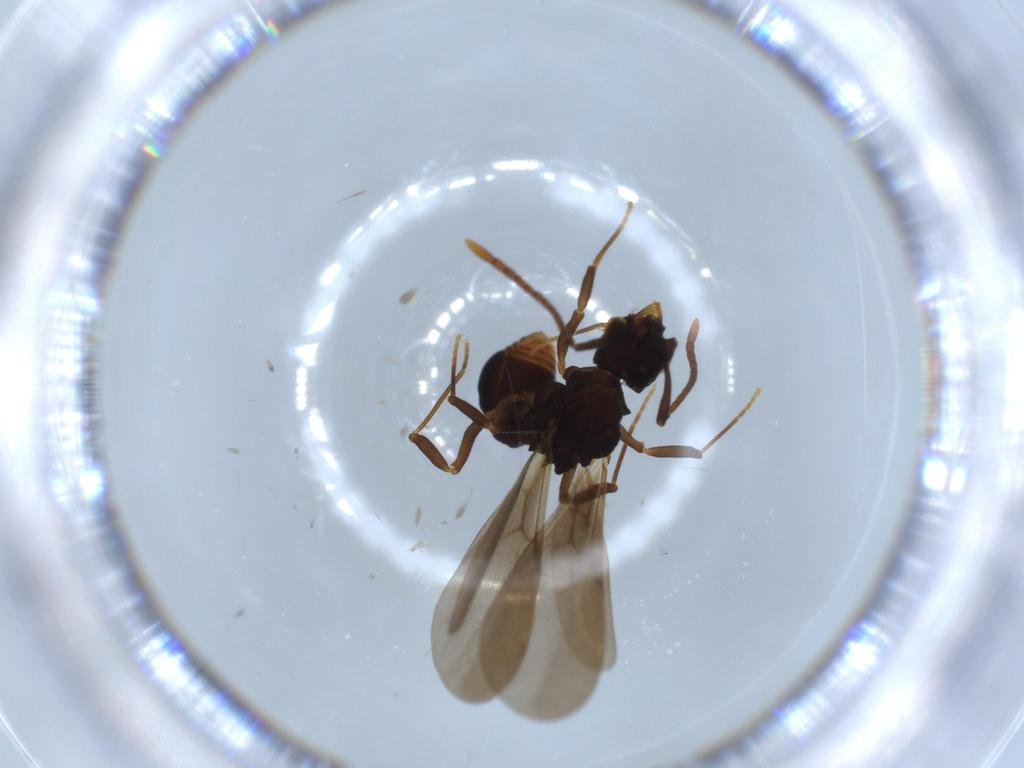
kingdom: Animalia
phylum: Arthropoda
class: Insecta
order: Hymenoptera
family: Formicidae
